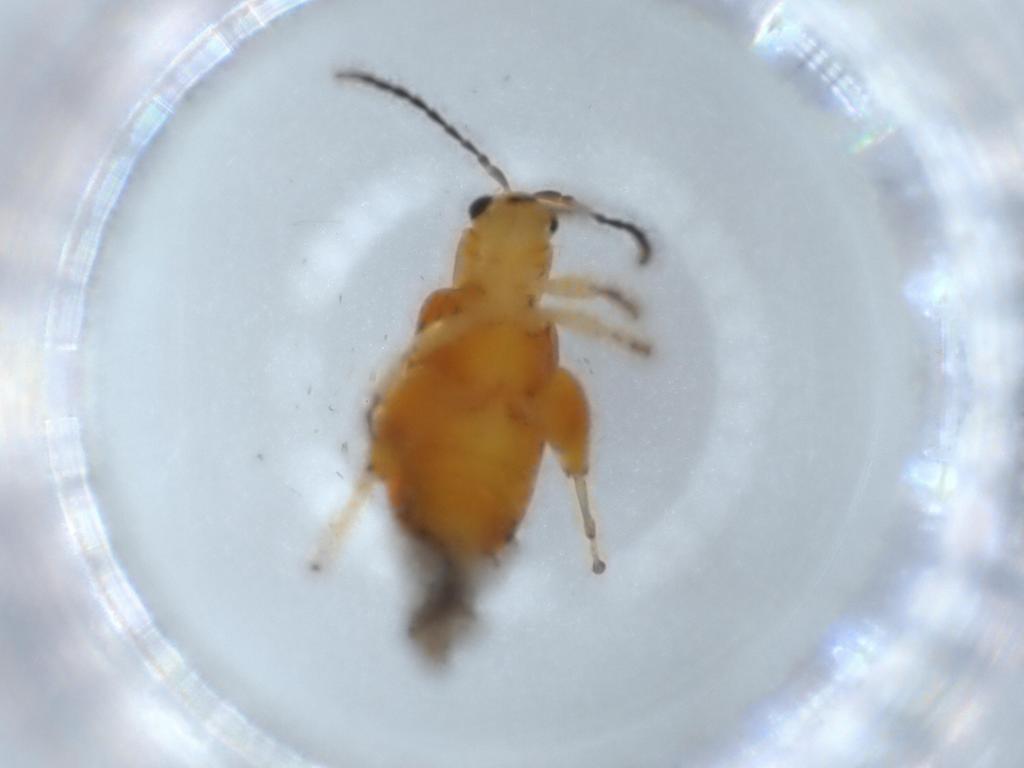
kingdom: Animalia
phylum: Arthropoda
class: Insecta
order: Coleoptera
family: Chrysomelidae
